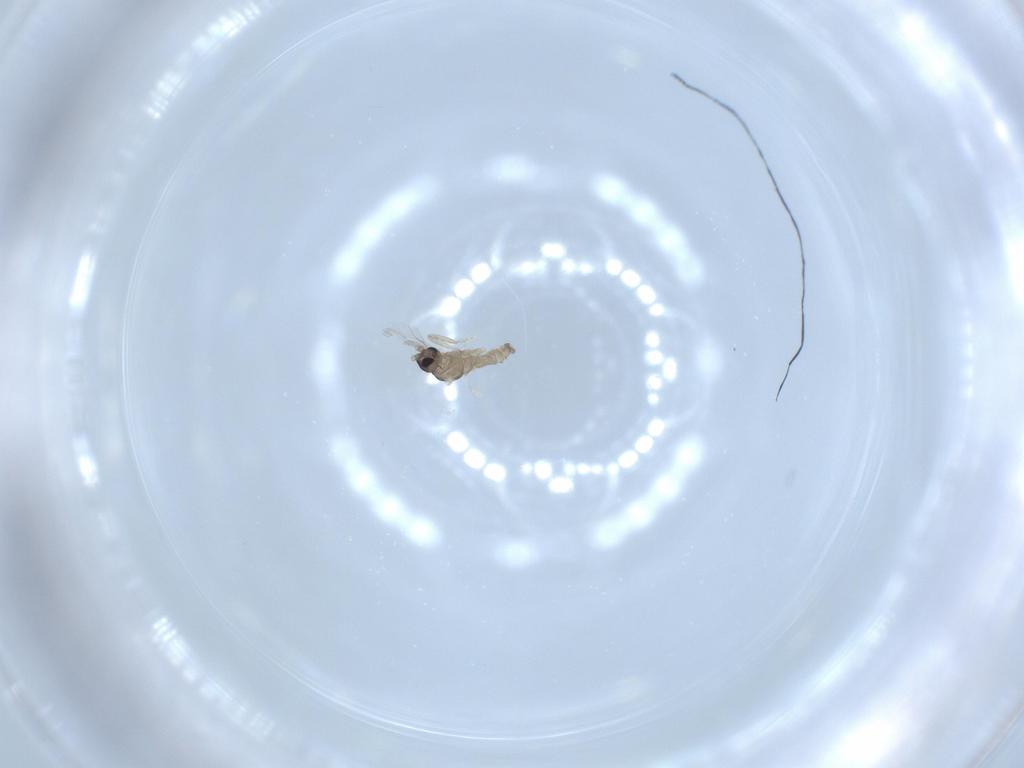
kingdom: Animalia
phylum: Arthropoda
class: Insecta
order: Diptera
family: Cecidomyiidae
